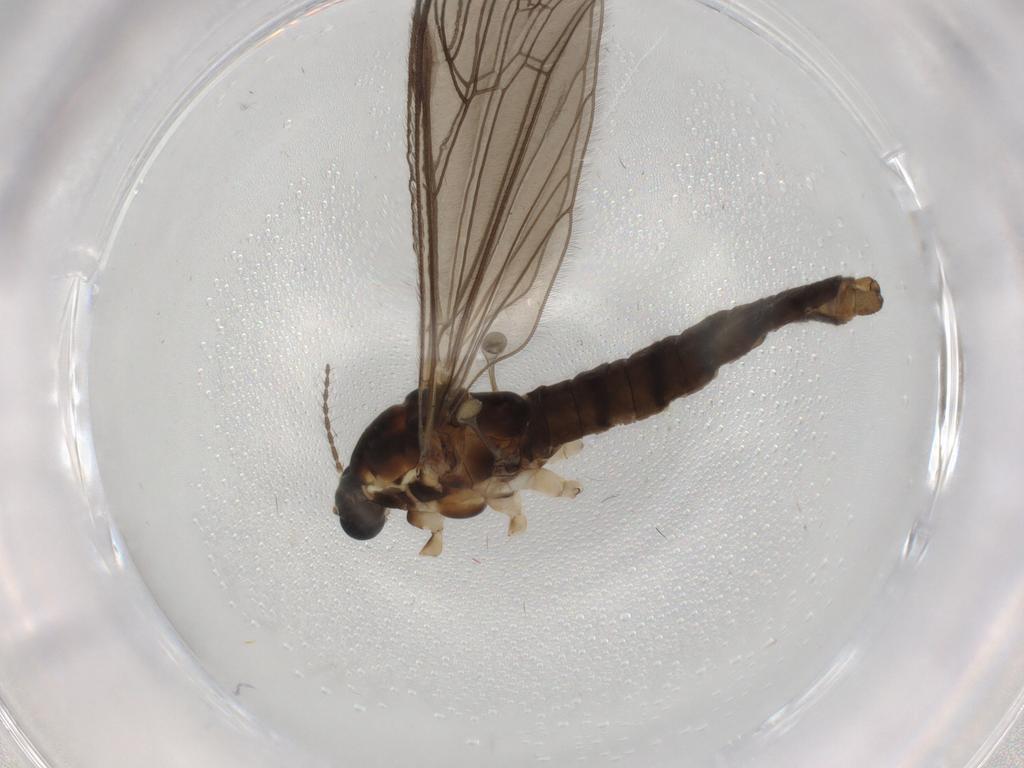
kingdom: Animalia
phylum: Arthropoda
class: Insecta
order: Diptera
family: Sphaeroceridae
